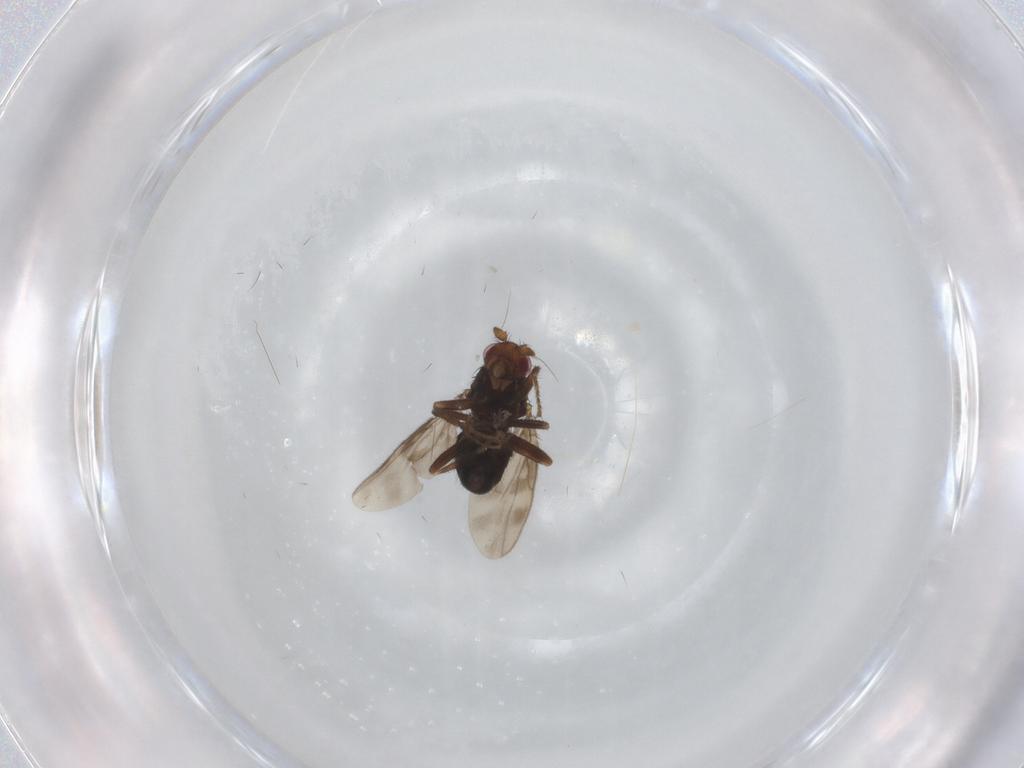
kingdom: Animalia
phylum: Arthropoda
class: Insecta
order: Diptera
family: Sphaeroceridae
